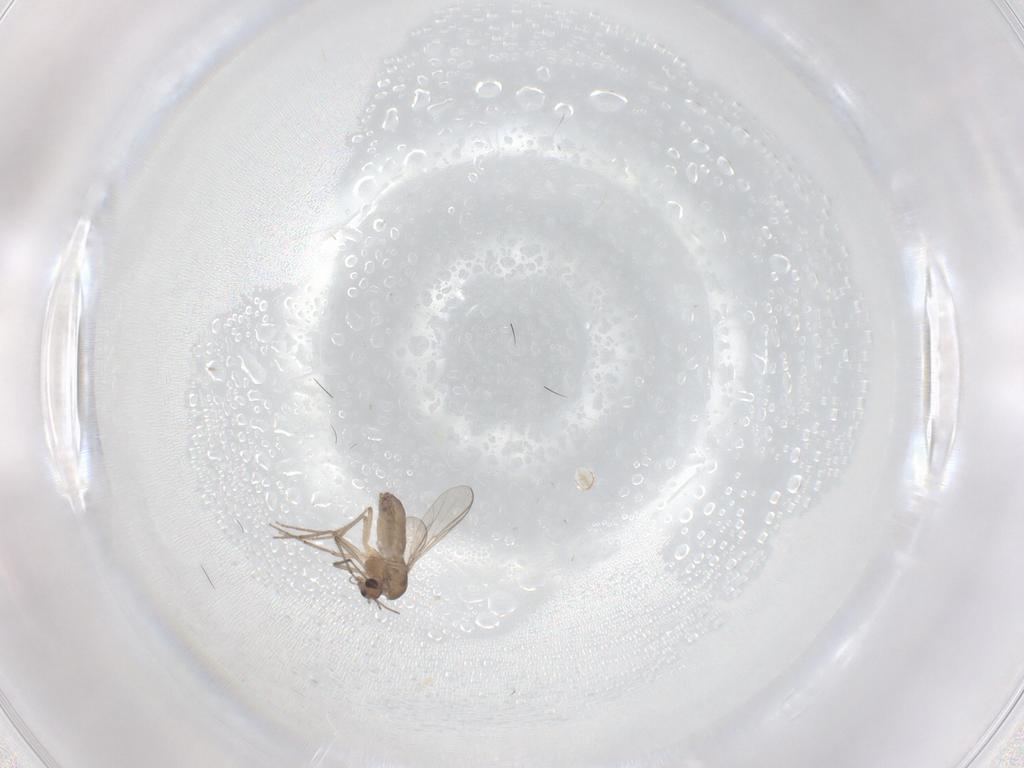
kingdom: Animalia
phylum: Arthropoda
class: Insecta
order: Diptera
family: Chironomidae
